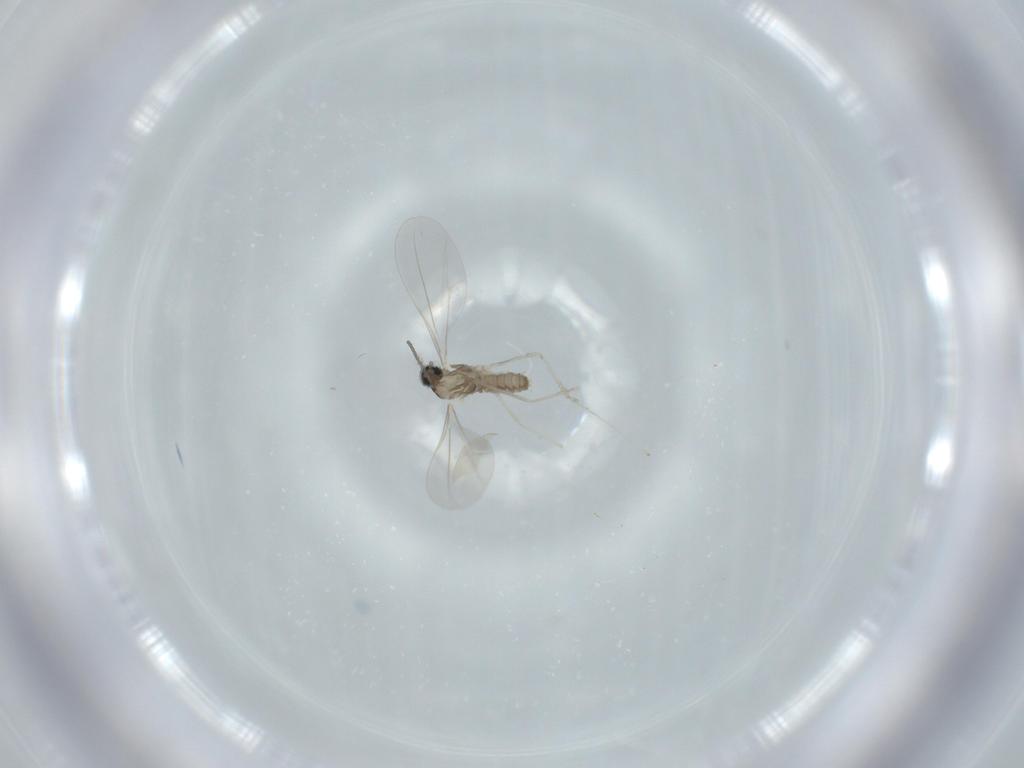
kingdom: Animalia
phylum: Arthropoda
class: Insecta
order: Diptera
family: Cecidomyiidae
